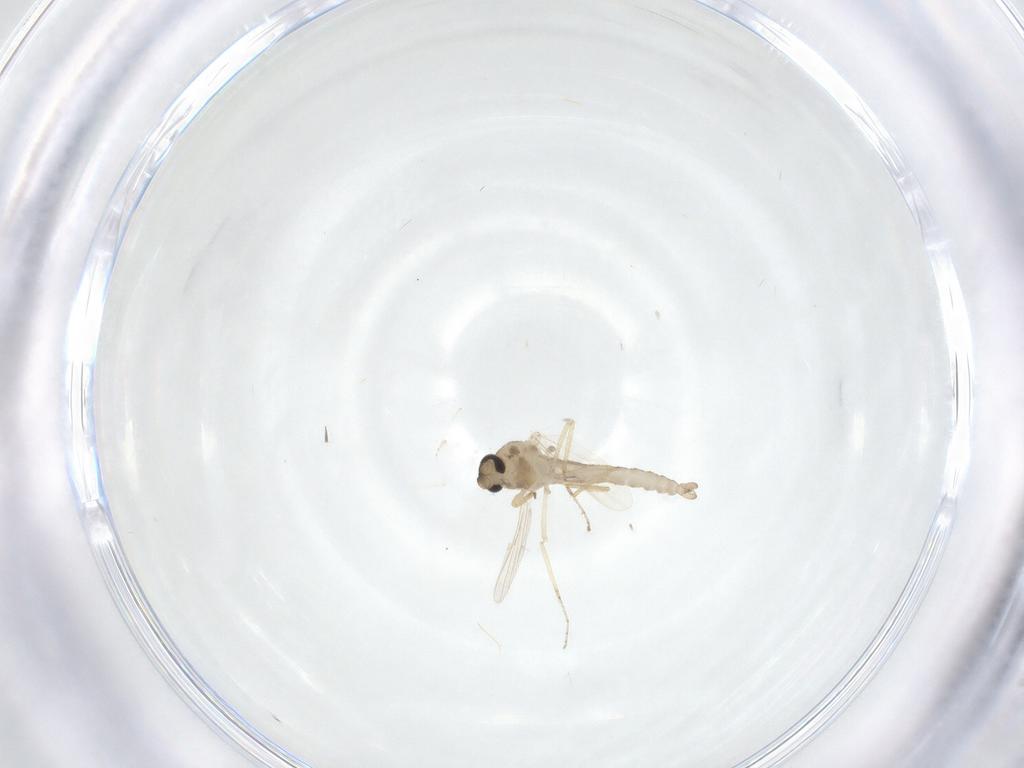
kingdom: Animalia
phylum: Arthropoda
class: Insecta
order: Diptera
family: Ceratopogonidae
